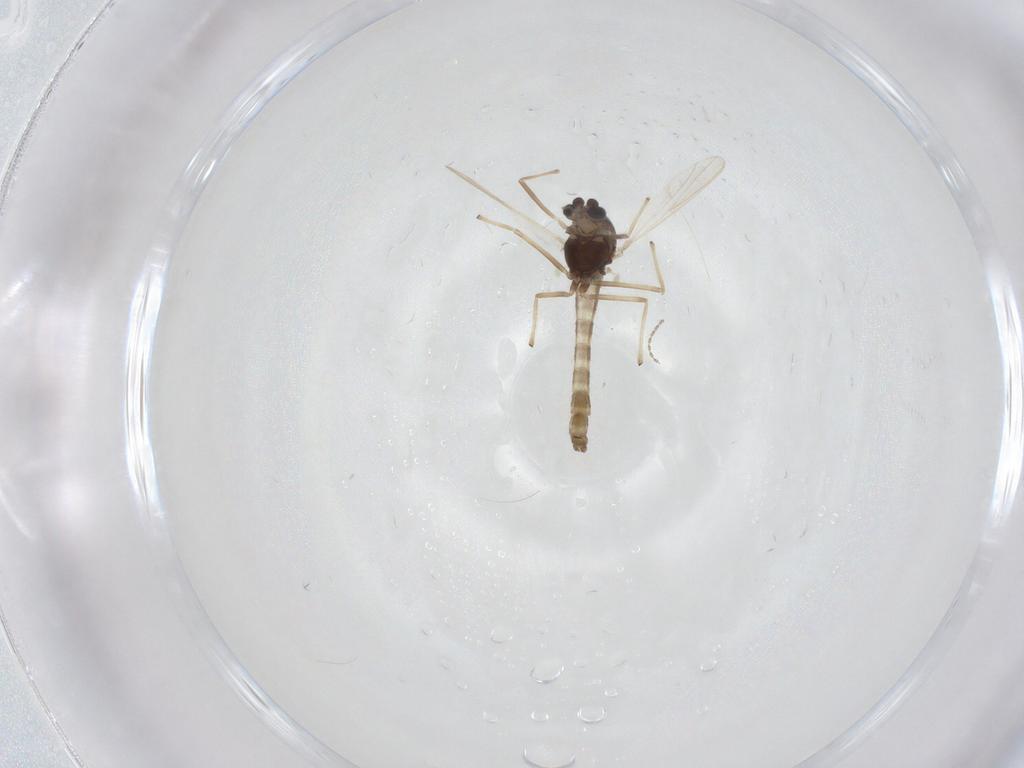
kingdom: Animalia
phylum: Arthropoda
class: Insecta
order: Diptera
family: Chironomidae
